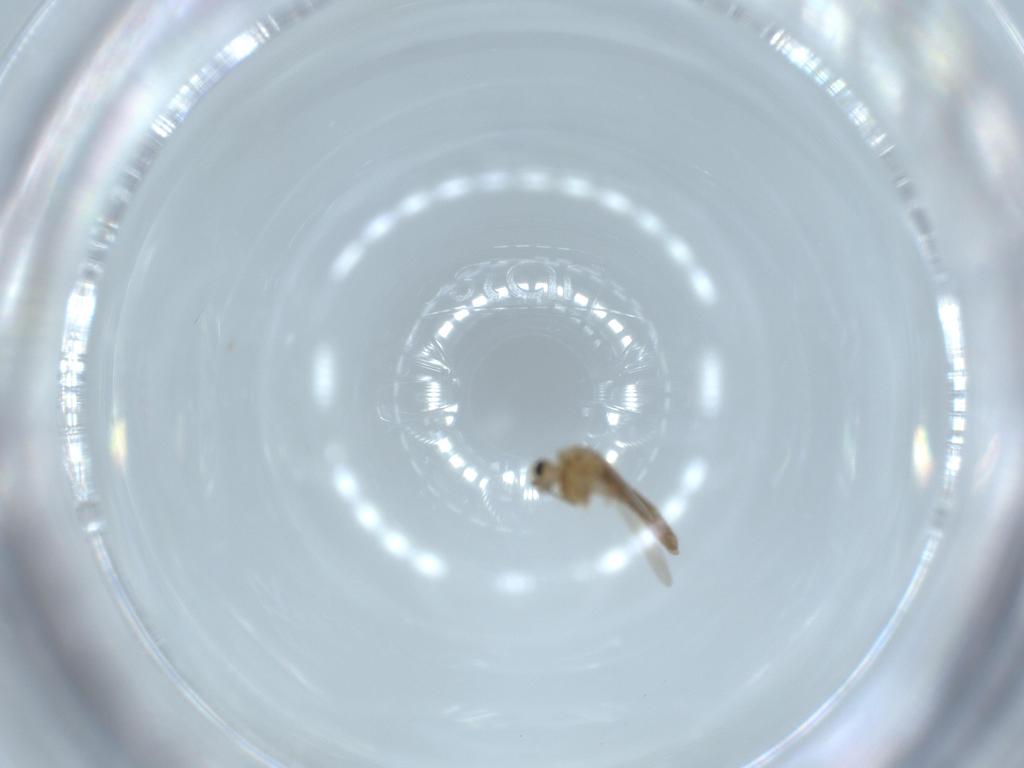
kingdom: Animalia
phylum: Arthropoda
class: Insecta
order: Diptera
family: Chironomidae
